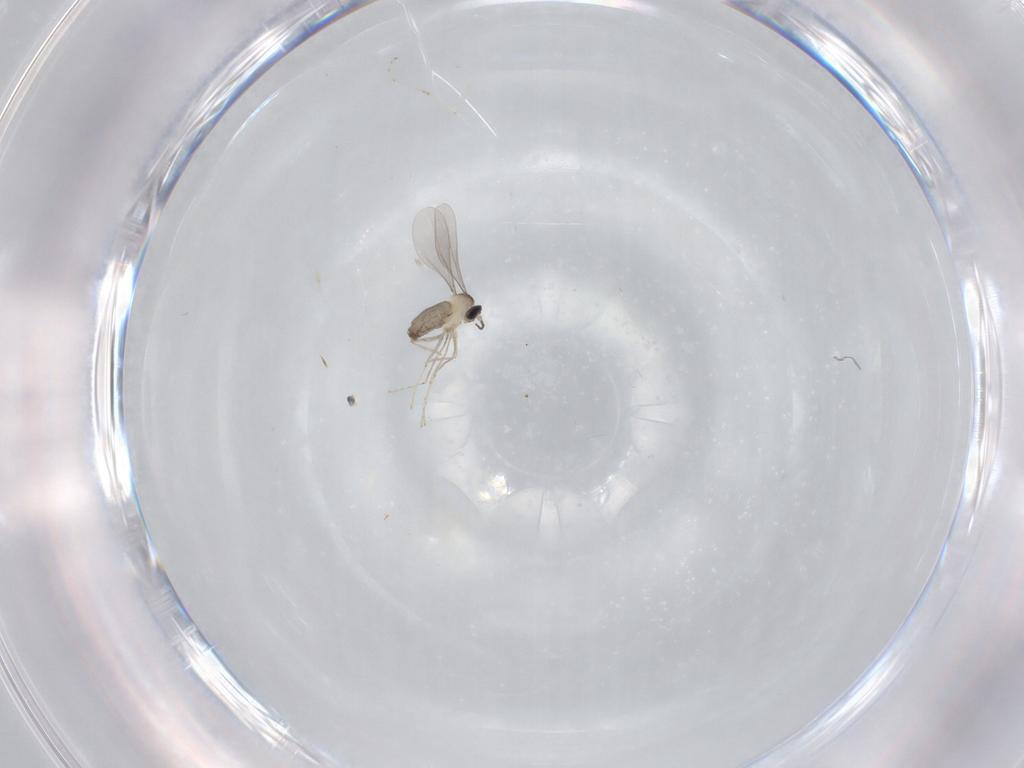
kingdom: Animalia
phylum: Arthropoda
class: Insecta
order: Diptera
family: Cecidomyiidae
